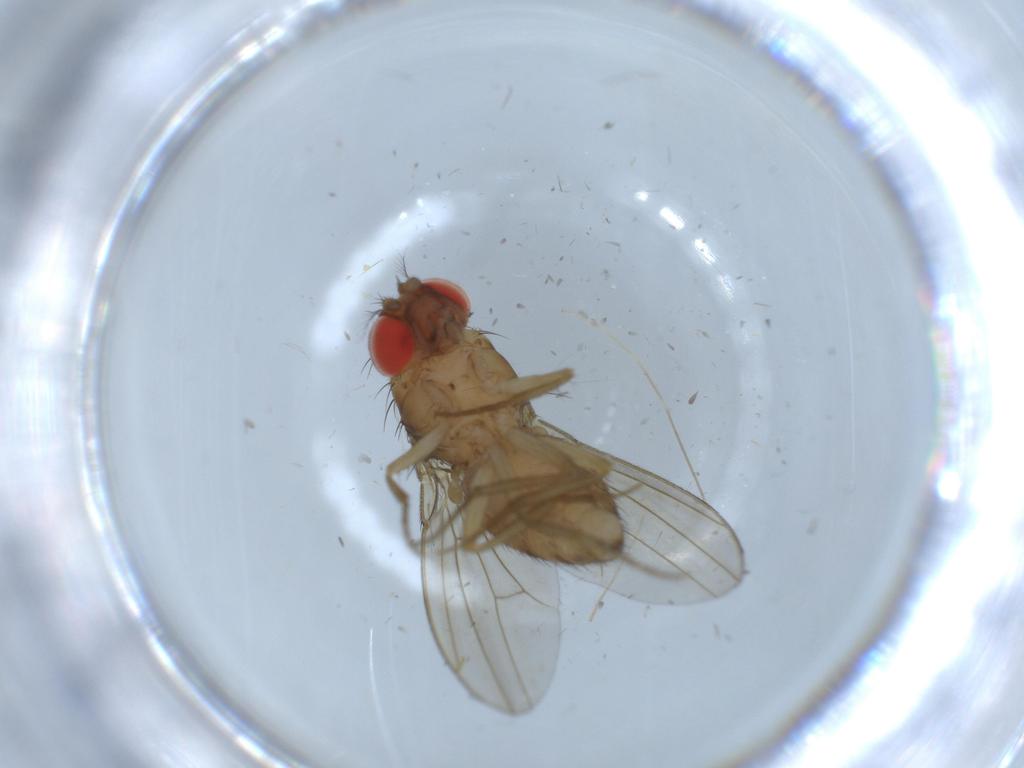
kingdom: Animalia
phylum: Arthropoda
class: Insecta
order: Diptera
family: Drosophilidae
